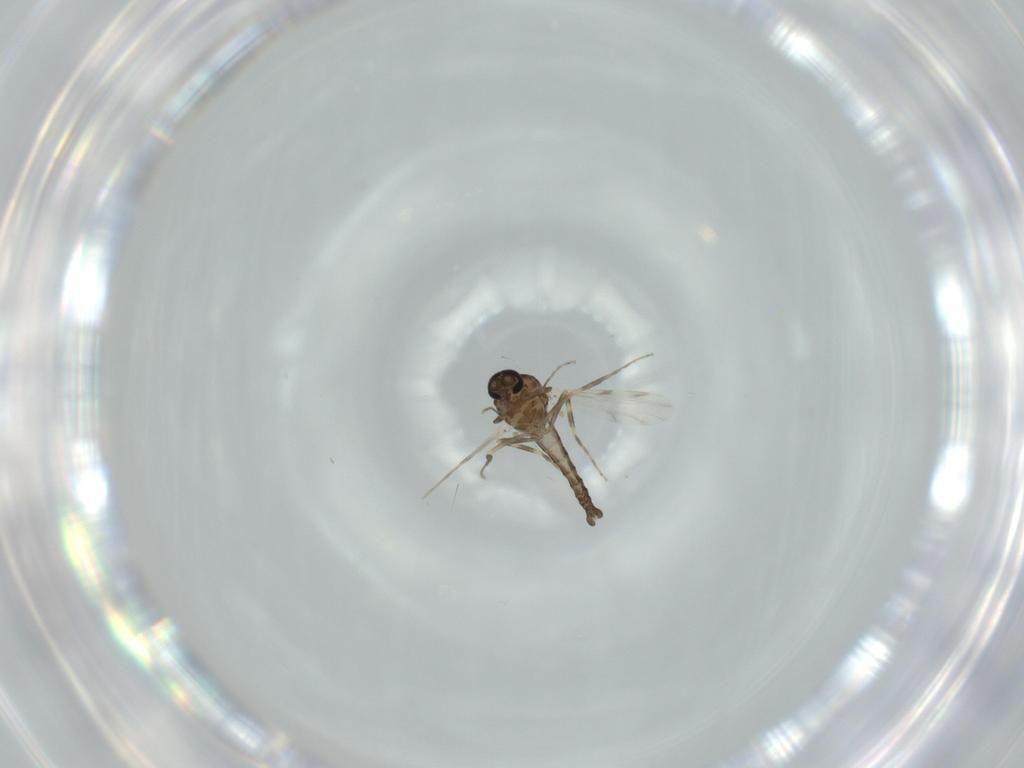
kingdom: Animalia
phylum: Arthropoda
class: Insecta
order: Diptera
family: Ceratopogonidae
